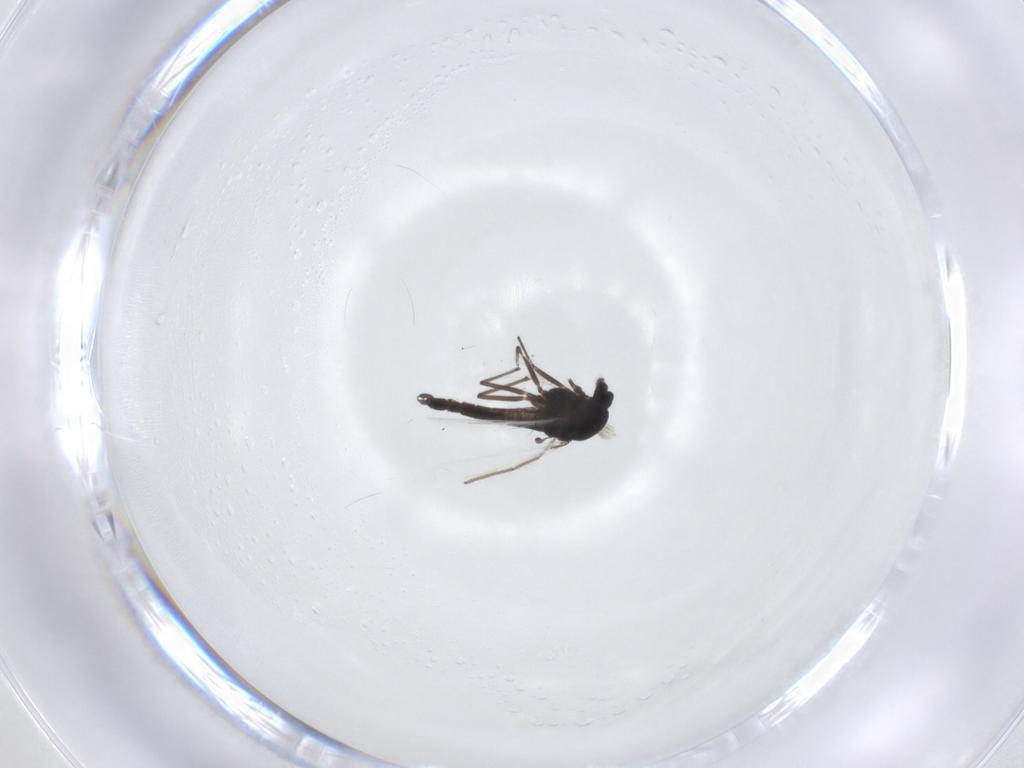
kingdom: Animalia
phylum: Arthropoda
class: Insecta
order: Diptera
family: Chironomidae
